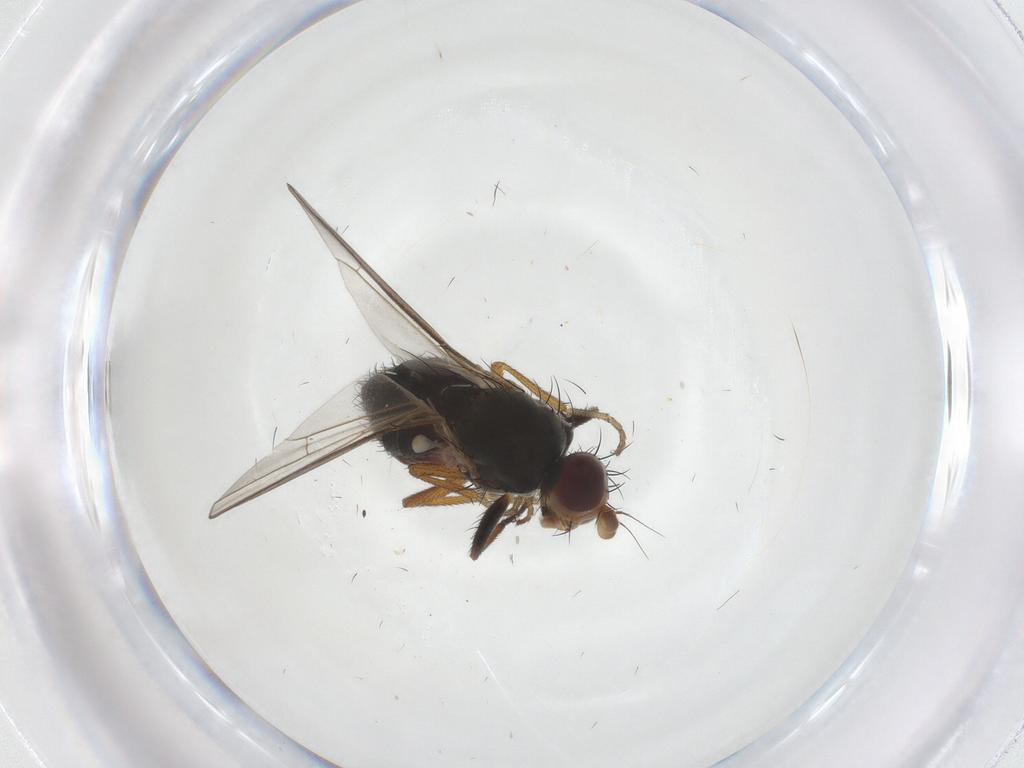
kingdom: Animalia
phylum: Arthropoda
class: Insecta
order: Diptera
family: Heleomyzidae
